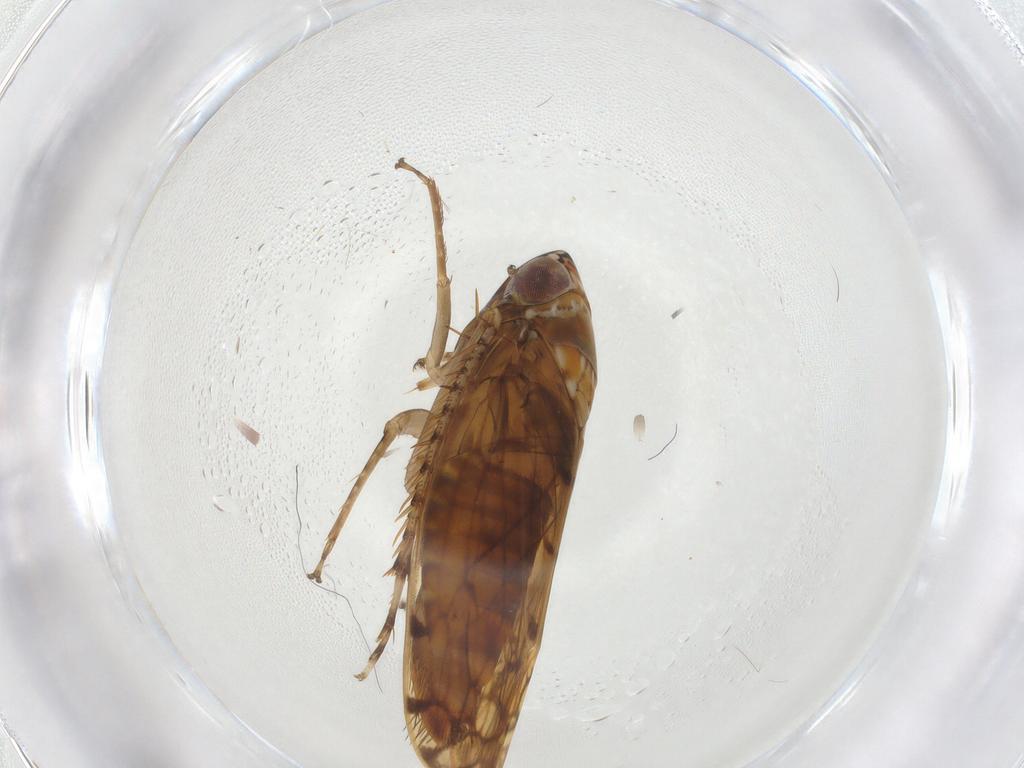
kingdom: Animalia
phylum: Arthropoda
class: Insecta
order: Hemiptera
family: Cicadellidae
